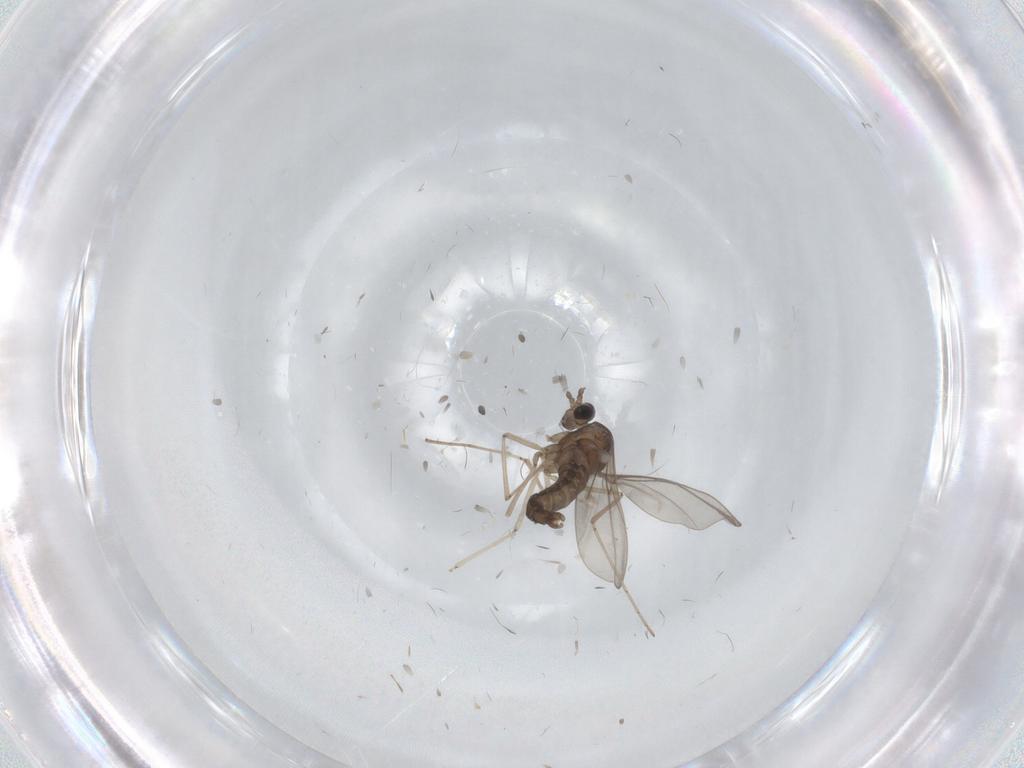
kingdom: Animalia
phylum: Arthropoda
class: Insecta
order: Diptera
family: Cecidomyiidae
